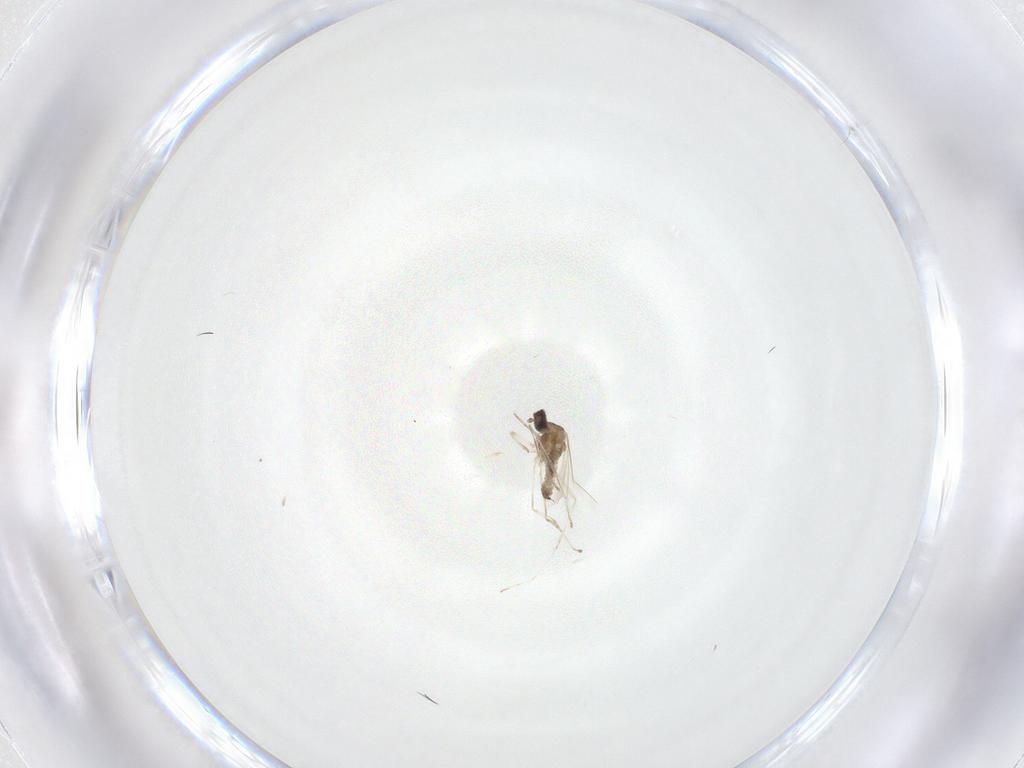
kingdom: Animalia
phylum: Arthropoda
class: Insecta
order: Diptera
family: Cecidomyiidae
